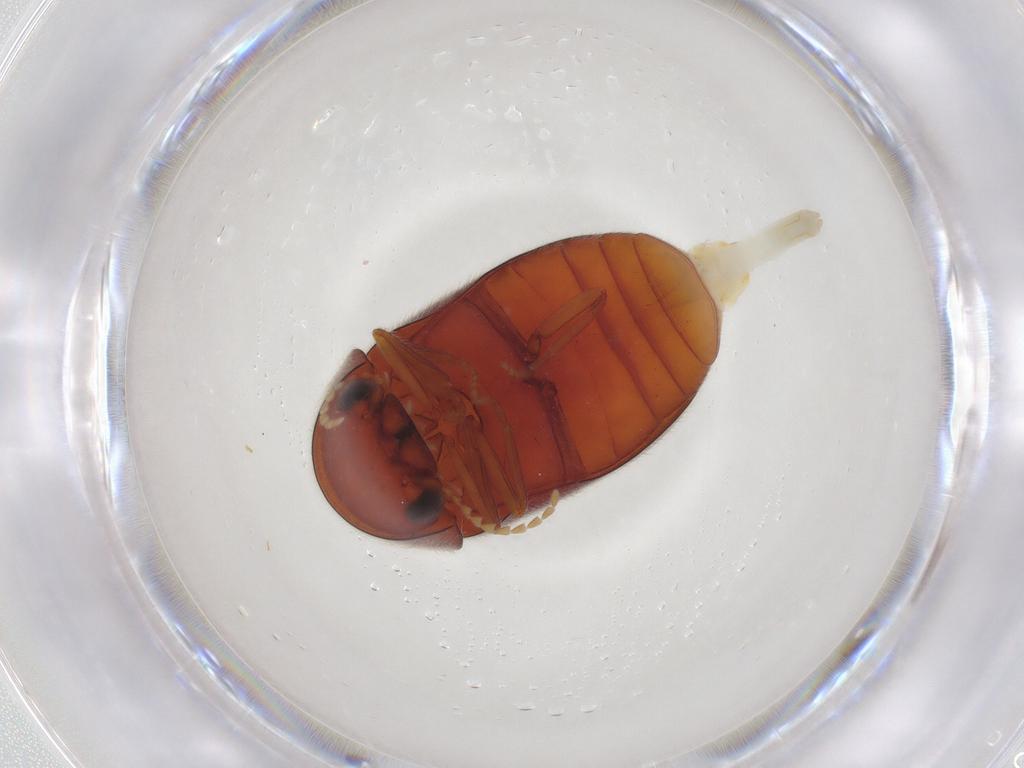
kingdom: Animalia
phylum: Arthropoda
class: Insecta
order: Coleoptera
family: Ptinidae
